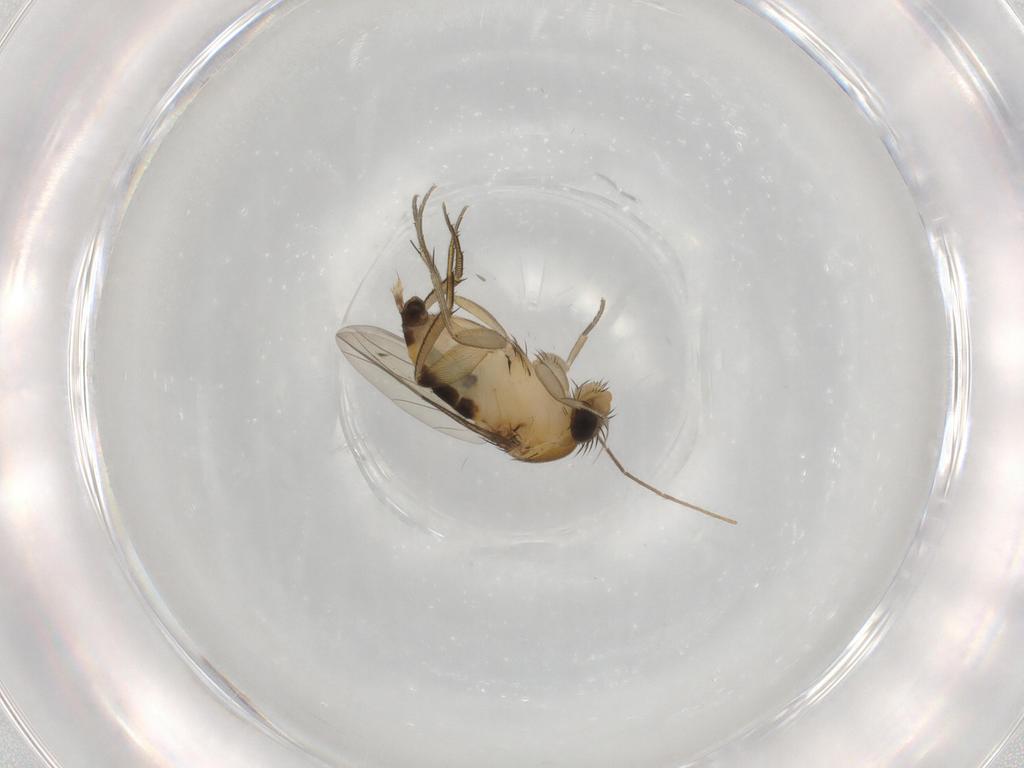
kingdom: Animalia
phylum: Arthropoda
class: Insecta
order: Diptera
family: Phoridae
